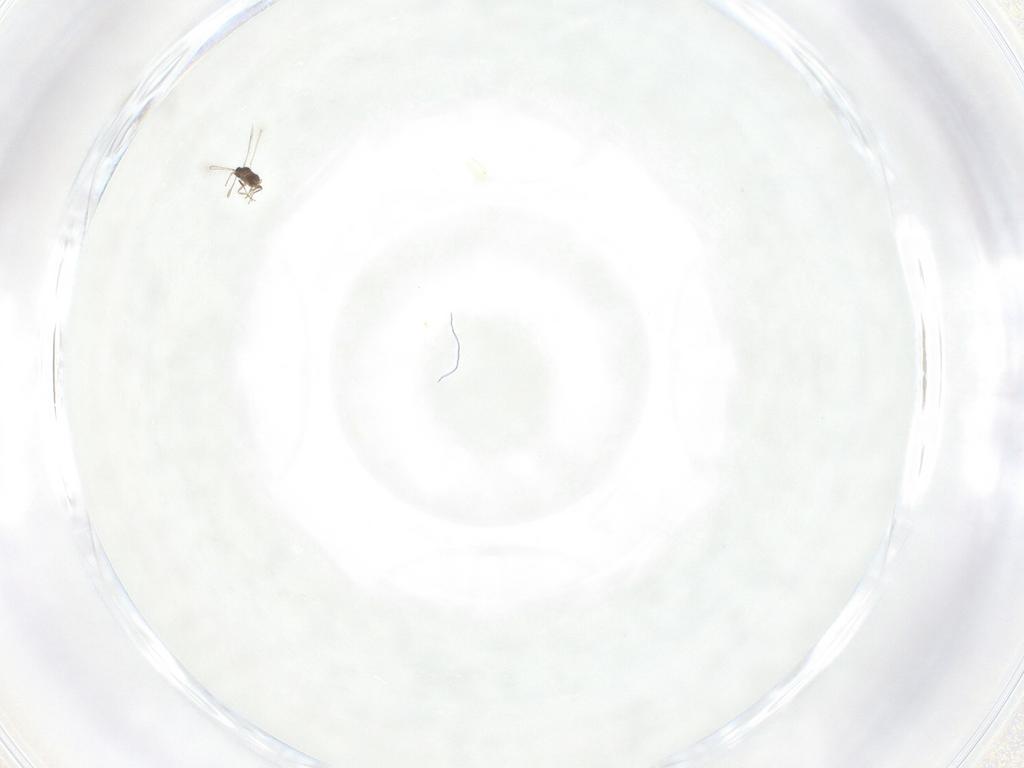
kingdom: Animalia
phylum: Arthropoda
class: Insecta
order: Hymenoptera
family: Mymaridae
